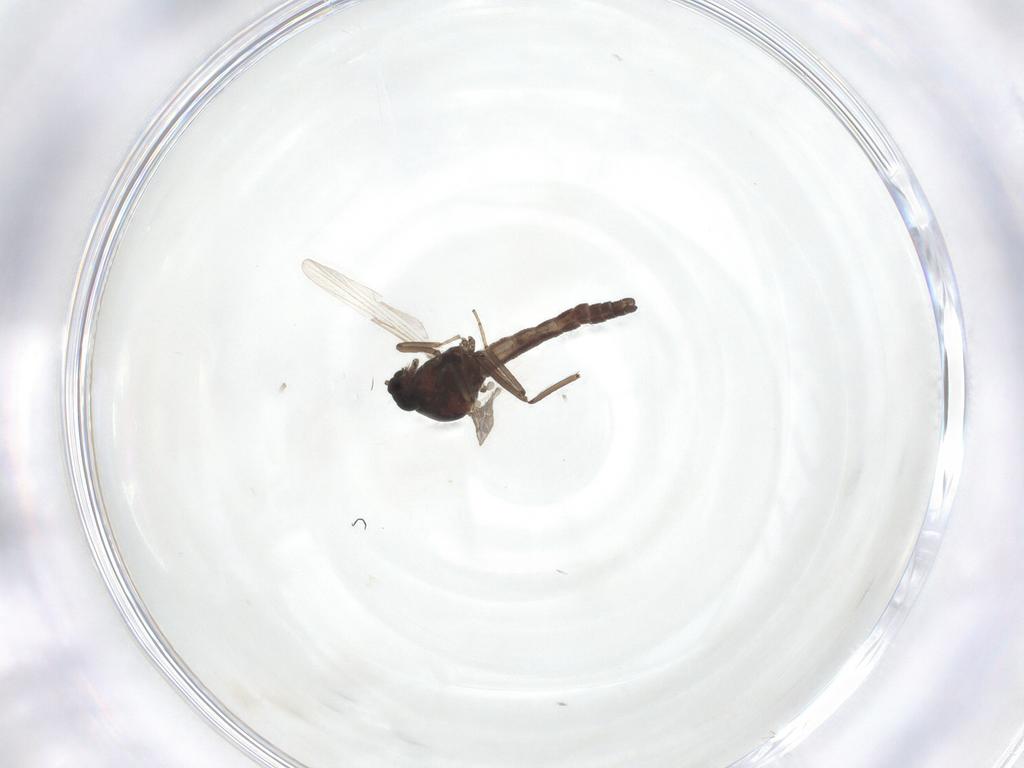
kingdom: Animalia
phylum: Arthropoda
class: Insecta
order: Diptera
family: Ceratopogonidae
